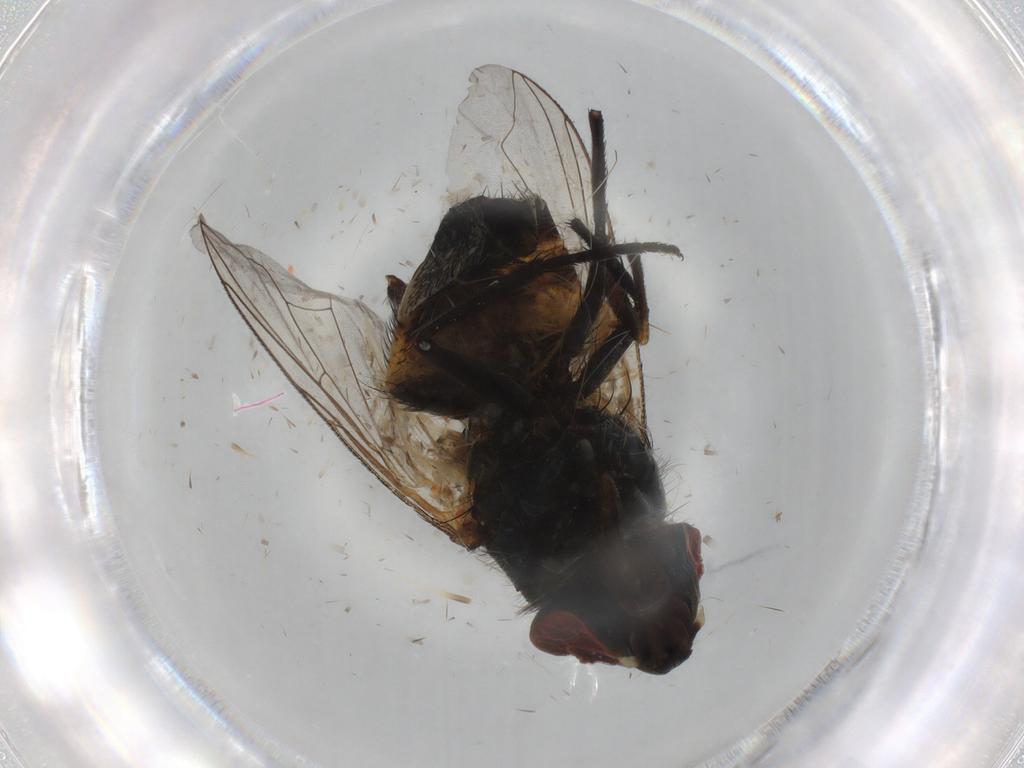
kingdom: Animalia
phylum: Arthropoda
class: Insecta
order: Diptera
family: Sarcophagidae
